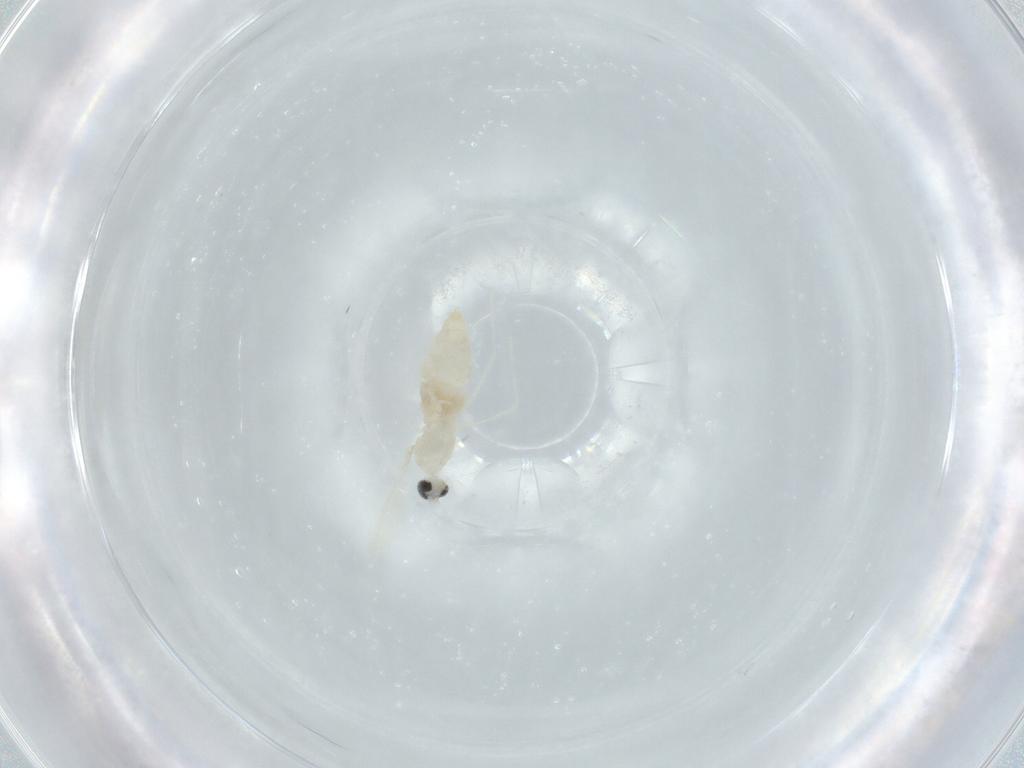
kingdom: Animalia
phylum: Arthropoda
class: Insecta
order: Diptera
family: Cecidomyiidae
